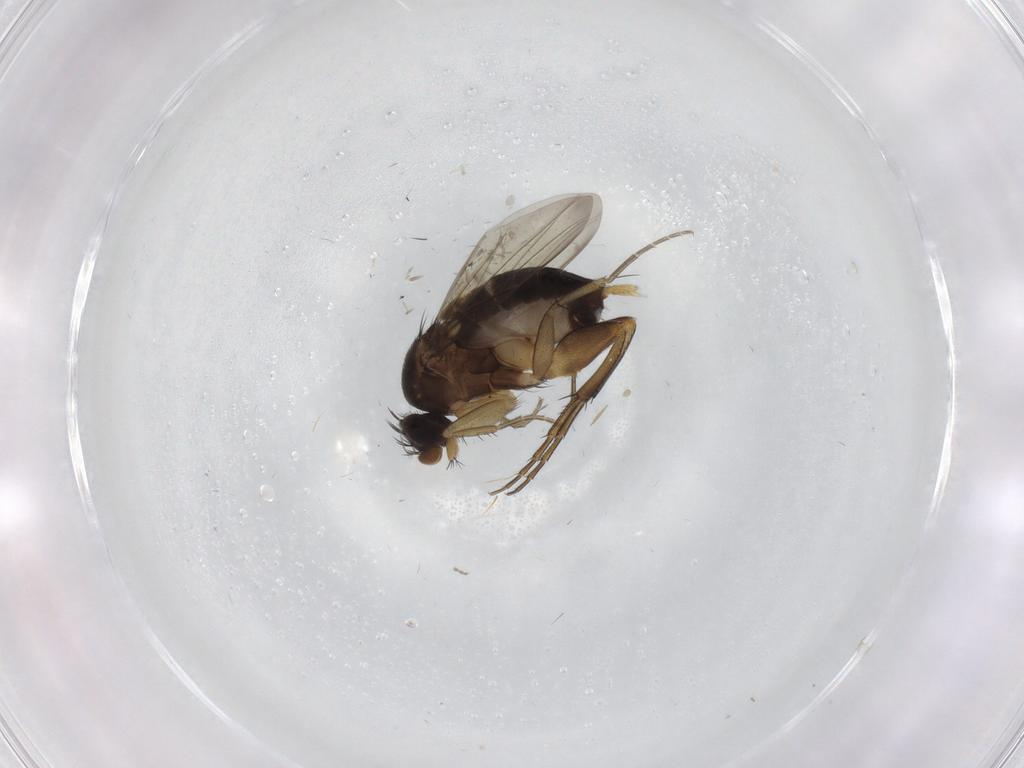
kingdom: Animalia
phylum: Arthropoda
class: Insecta
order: Diptera
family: Phoridae
